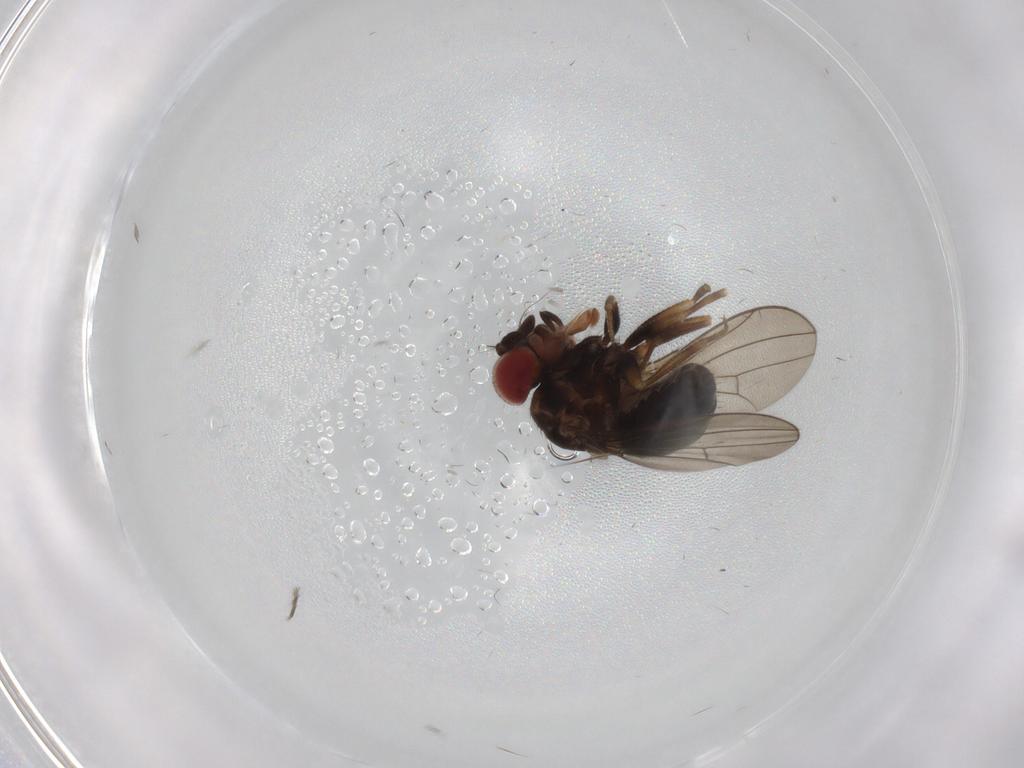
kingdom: Animalia
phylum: Arthropoda
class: Insecta
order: Diptera
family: Drosophilidae
